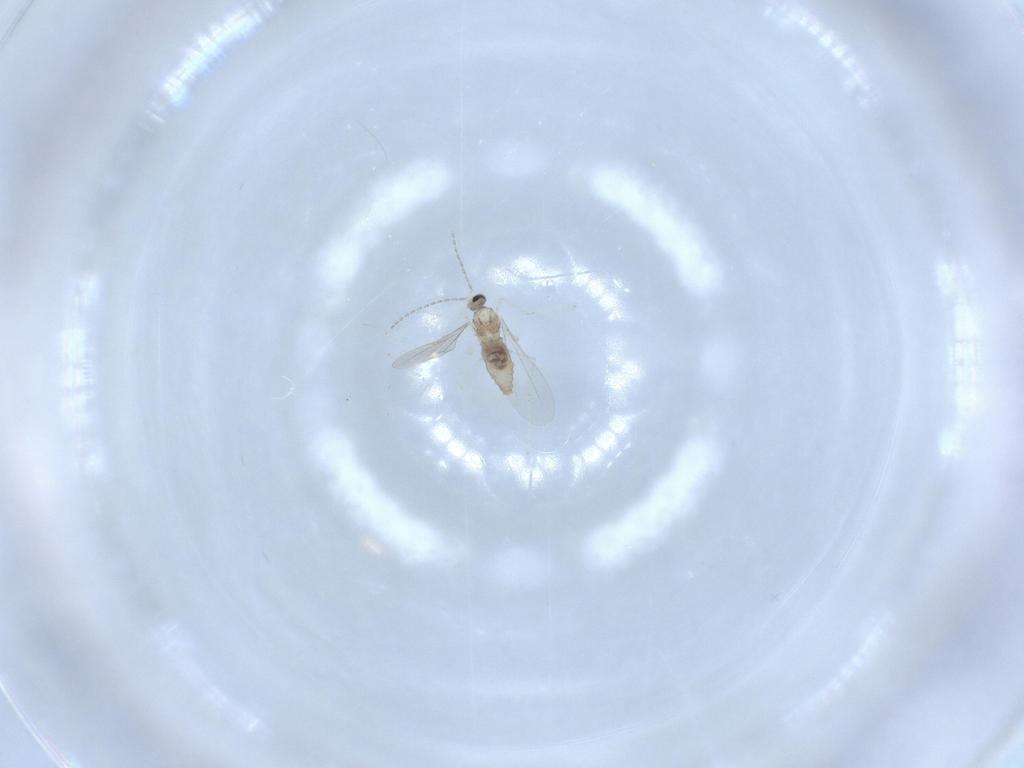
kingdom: Animalia
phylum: Arthropoda
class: Insecta
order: Diptera
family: Cecidomyiidae
